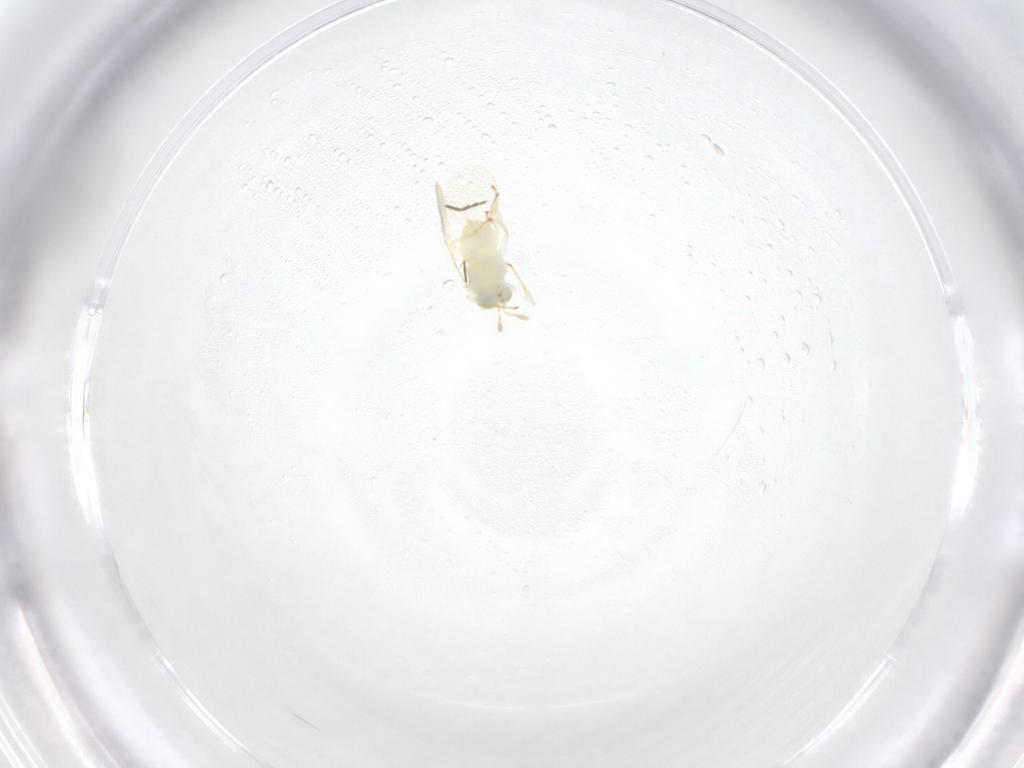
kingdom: Animalia
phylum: Arthropoda
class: Insecta
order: Hymenoptera
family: Aphelinidae
